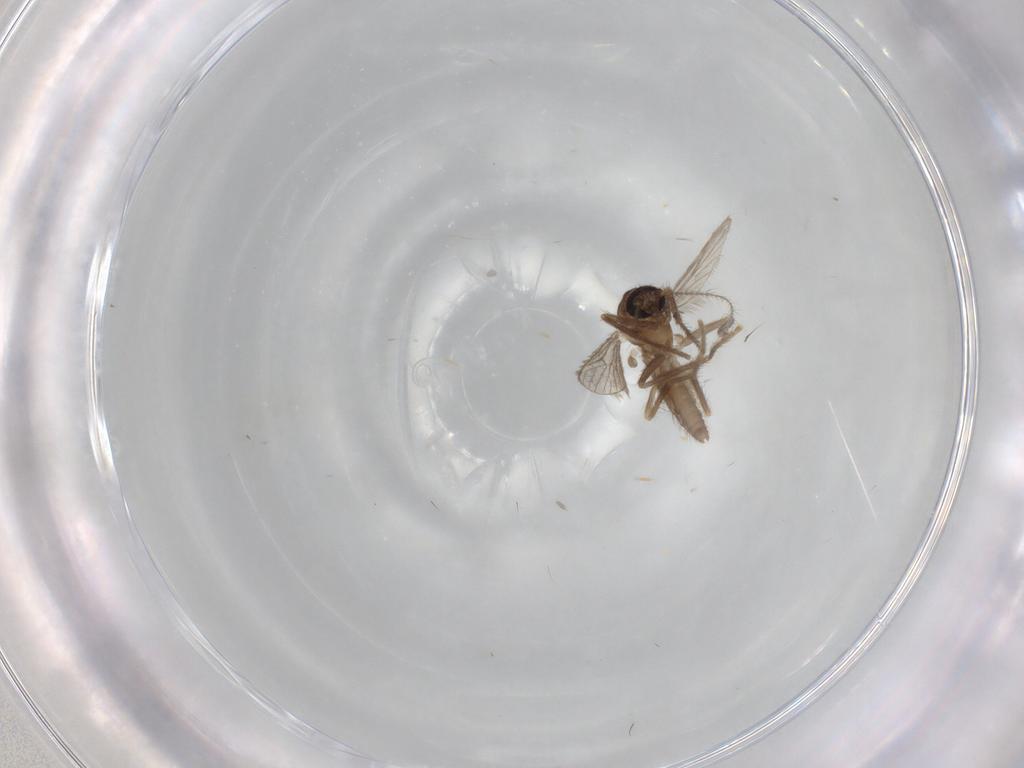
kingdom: Animalia
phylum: Arthropoda
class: Insecta
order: Diptera
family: Corethrellidae
